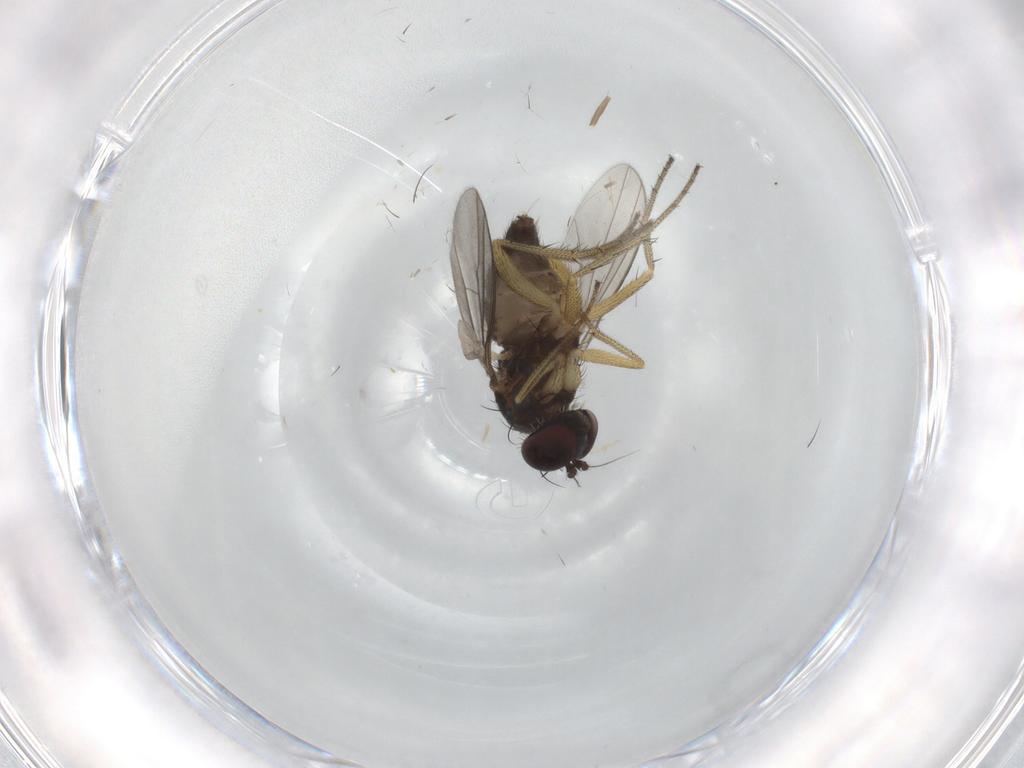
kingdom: Animalia
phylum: Arthropoda
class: Insecta
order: Diptera
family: Dolichopodidae
